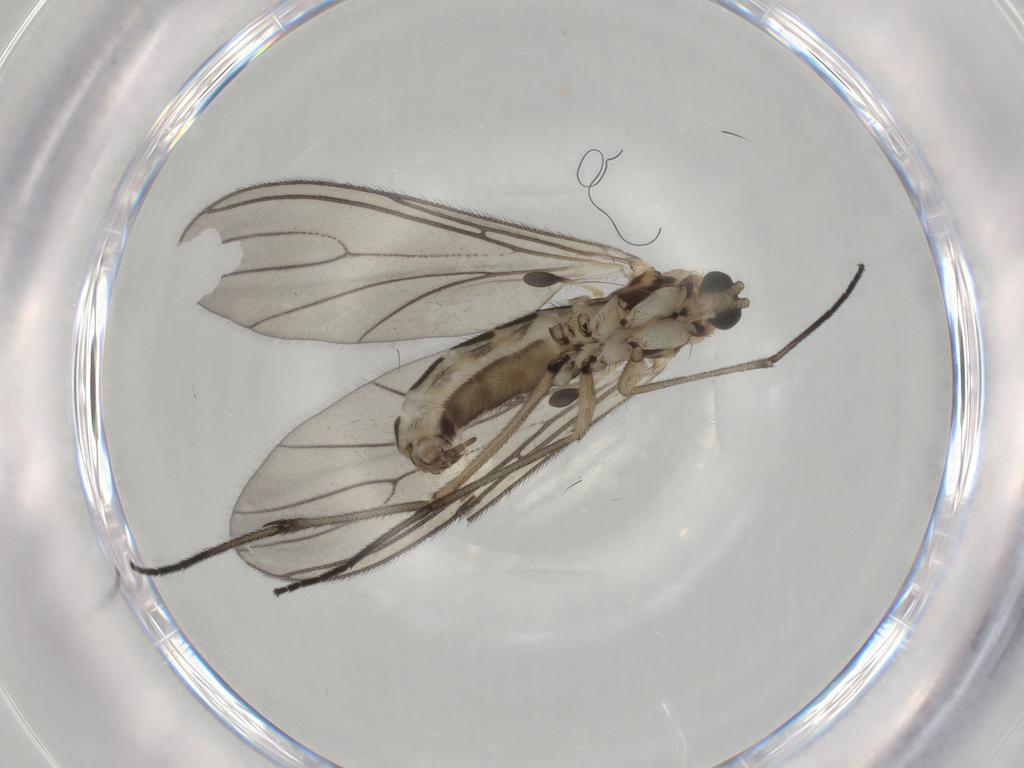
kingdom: Animalia
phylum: Arthropoda
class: Insecta
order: Diptera
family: Sciaridae
